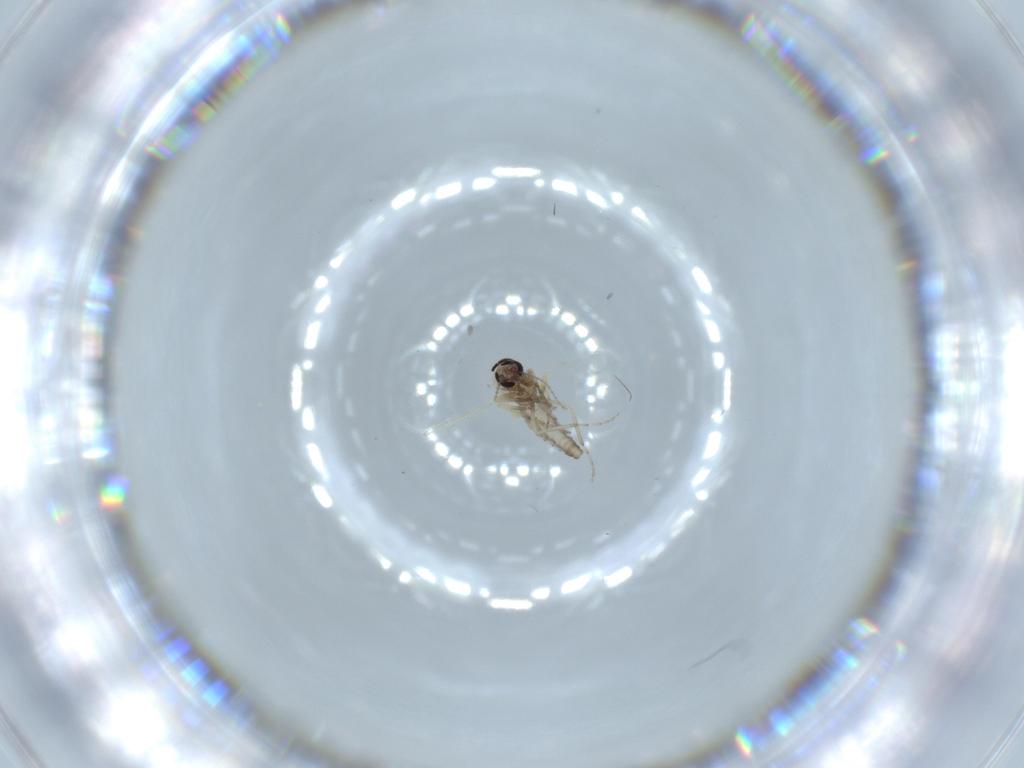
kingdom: Animalia
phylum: Arthropoda
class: Insecta
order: Diptera
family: Ceratopogonidae
